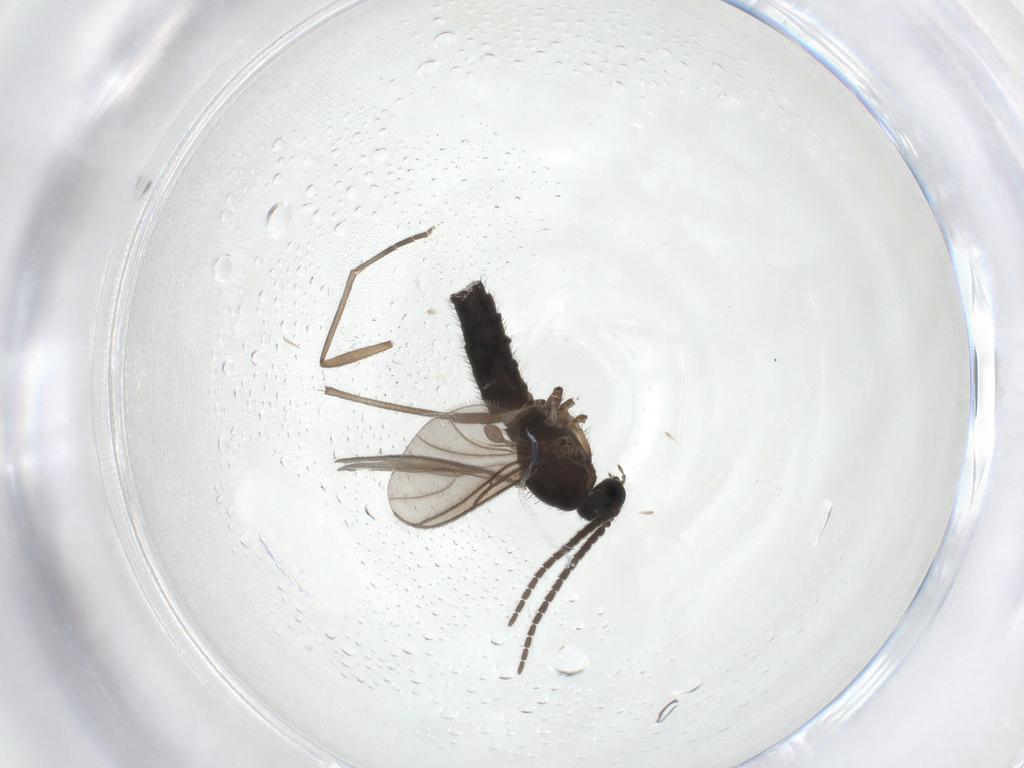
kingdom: Animalia
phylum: Arthropoda
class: Insecta
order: Diptera
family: Sciaridae
